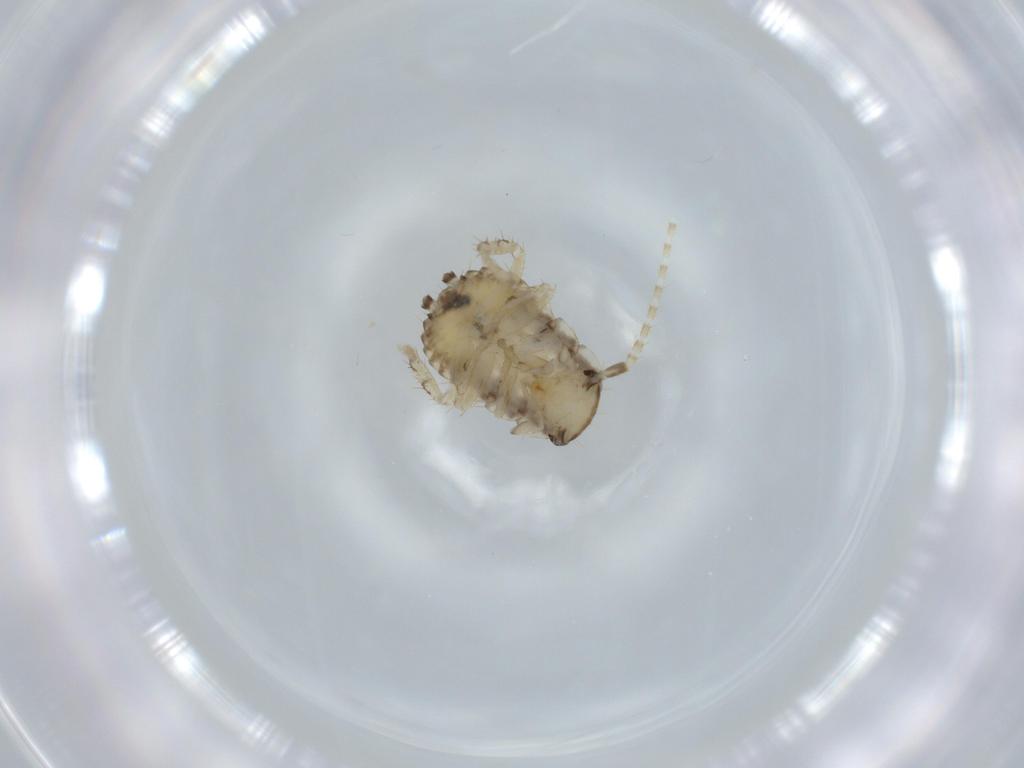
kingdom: Animalia
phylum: Arthropoda
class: Insecta
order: Blattodea
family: Ectobiidae
